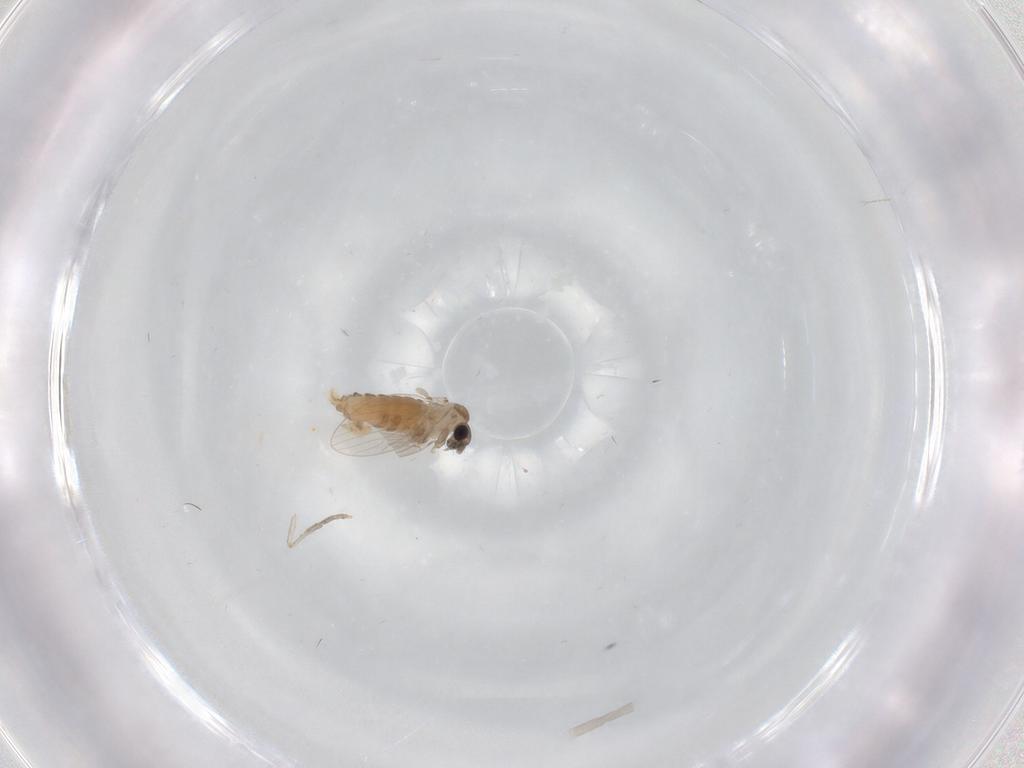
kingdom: Animalia
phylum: Arthropoda
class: Insecta
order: Diptera
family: Psychodidae
